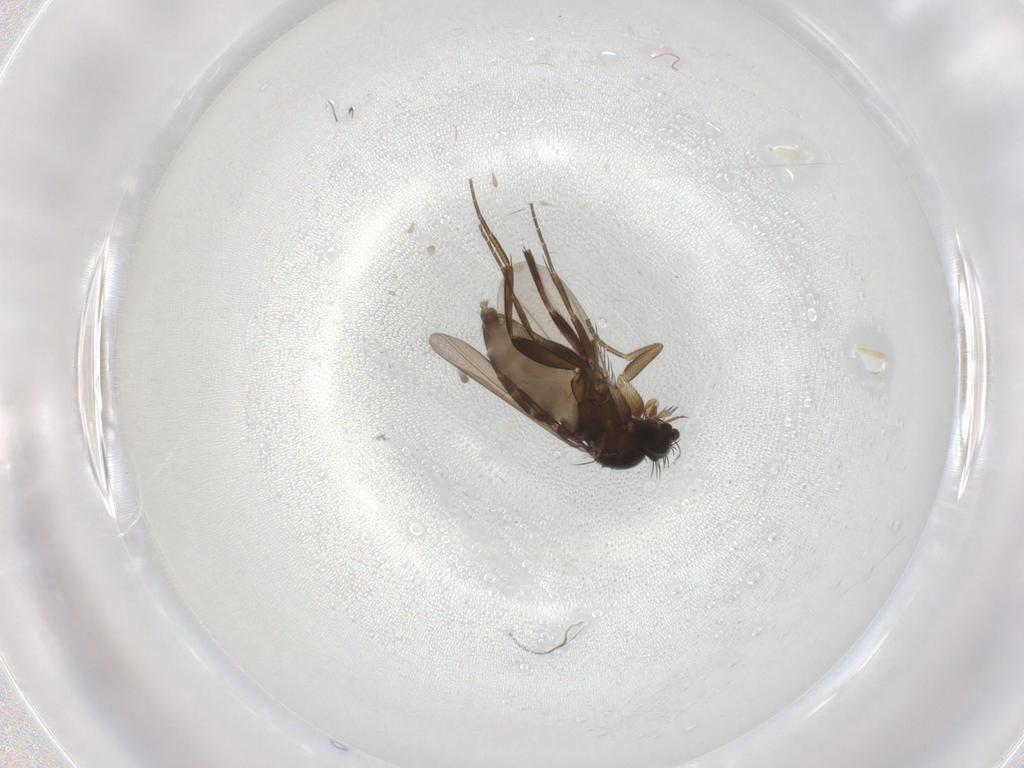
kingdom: Animalia
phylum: Arthropoda
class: Insecta
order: Diptera
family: Phoridae
